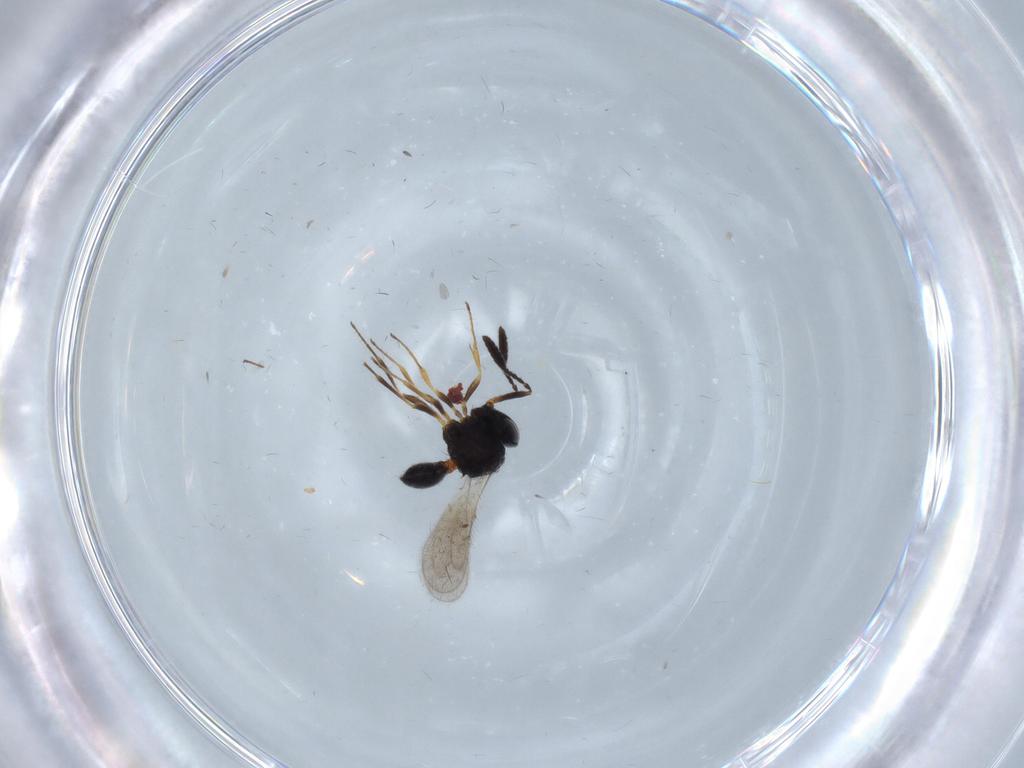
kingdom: Animalia
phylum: Arthropoda
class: Insecta
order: Hymenoptera
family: Scelionidae
